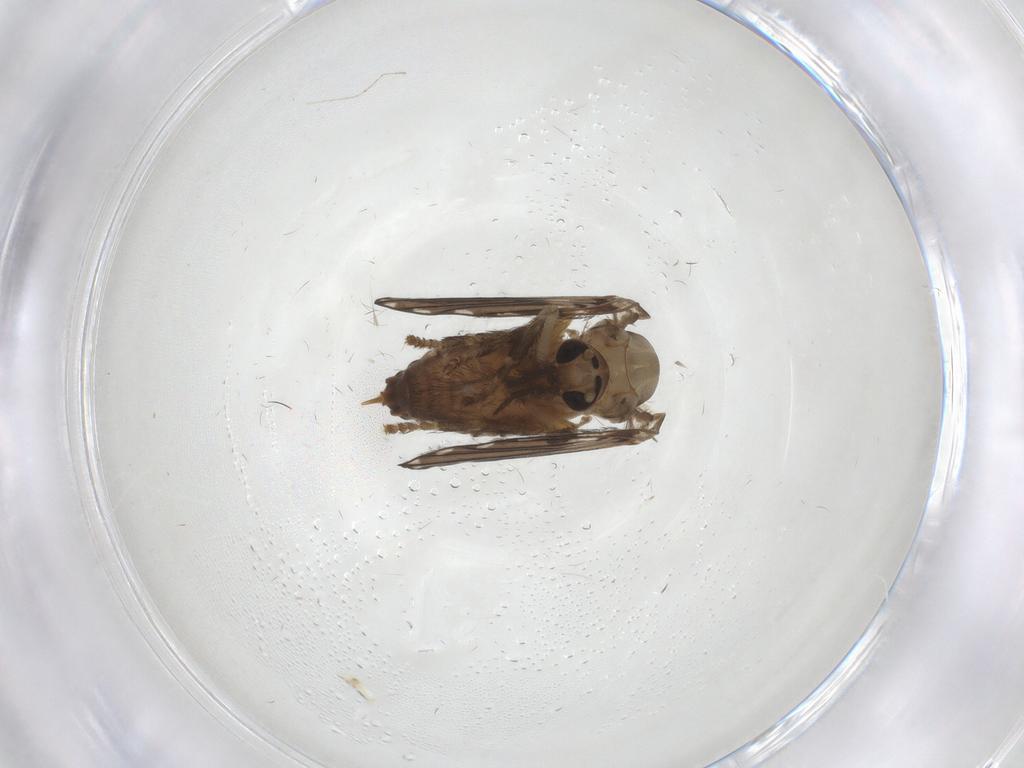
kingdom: Animalia
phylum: Arthropoda
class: Insecta
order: Diptera
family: Psychodidae
